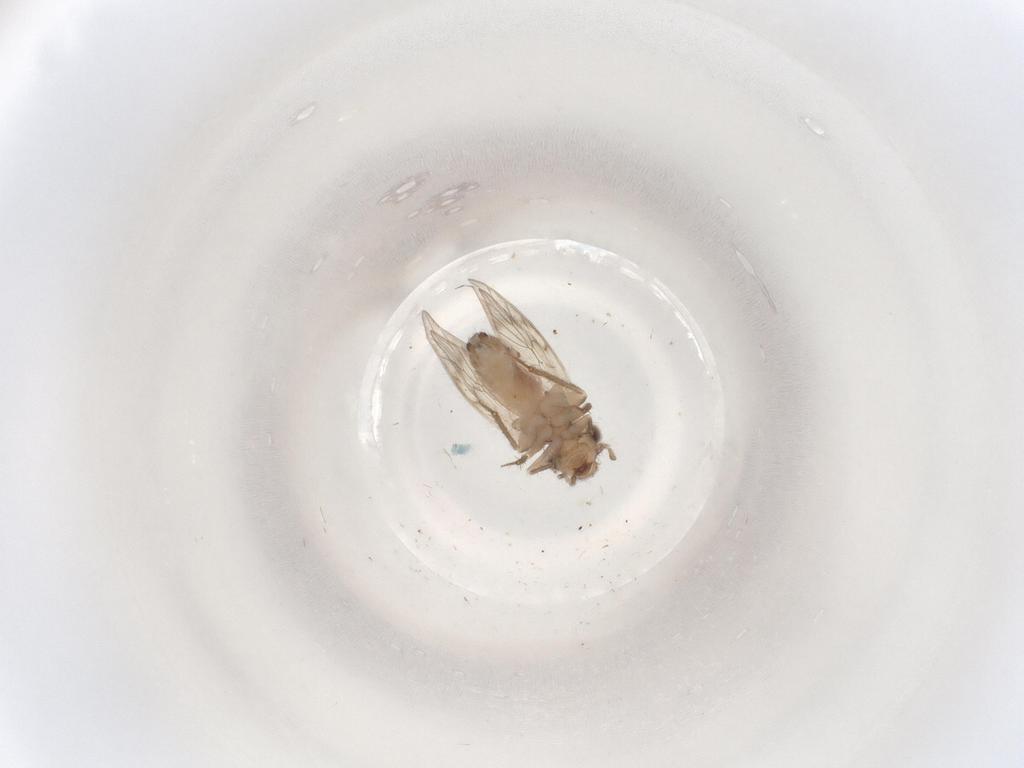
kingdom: Animalia
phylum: Arthropoda
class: Insecta
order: Psocodea
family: Lepidopsocidae
